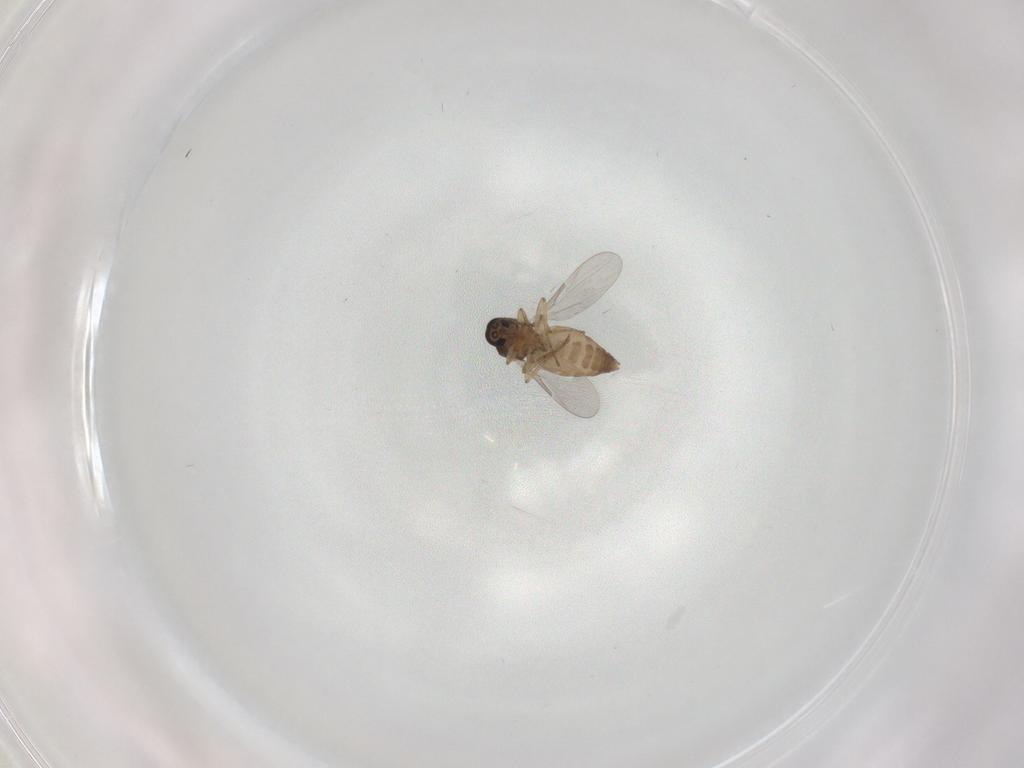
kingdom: Animalia
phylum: Arthropoda
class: Insecta
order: Diptera
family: Ceratopogonidae
